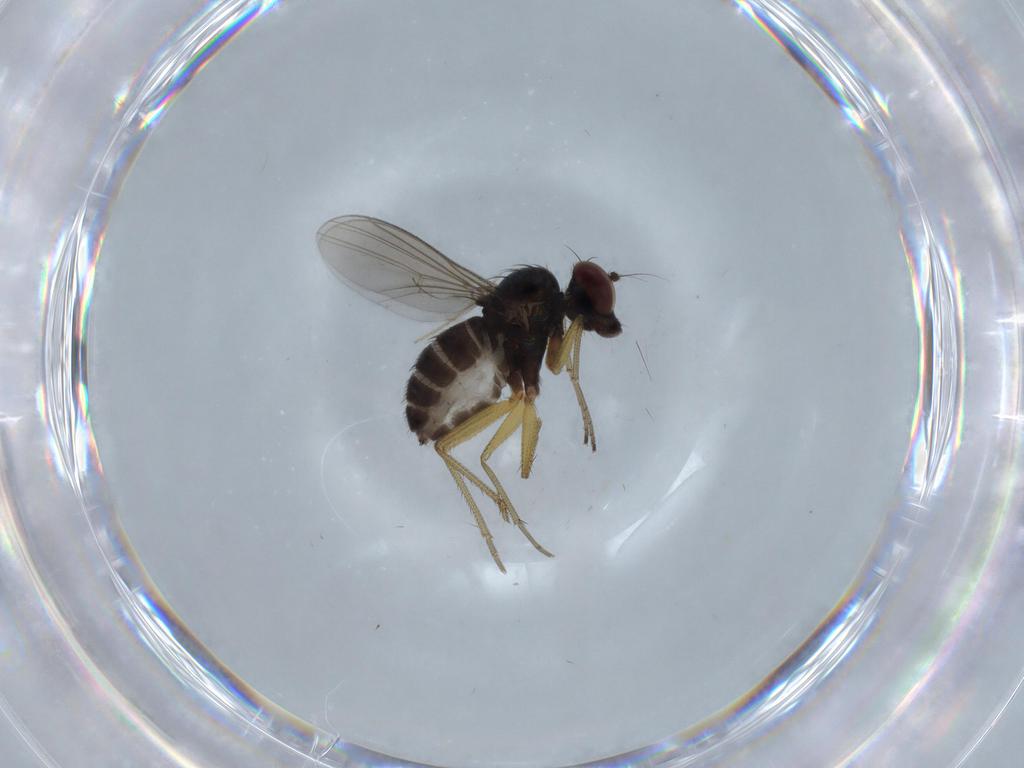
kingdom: Animalia
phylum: Arthropoda
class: Insecta
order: Diptera
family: Dolichopodidae
